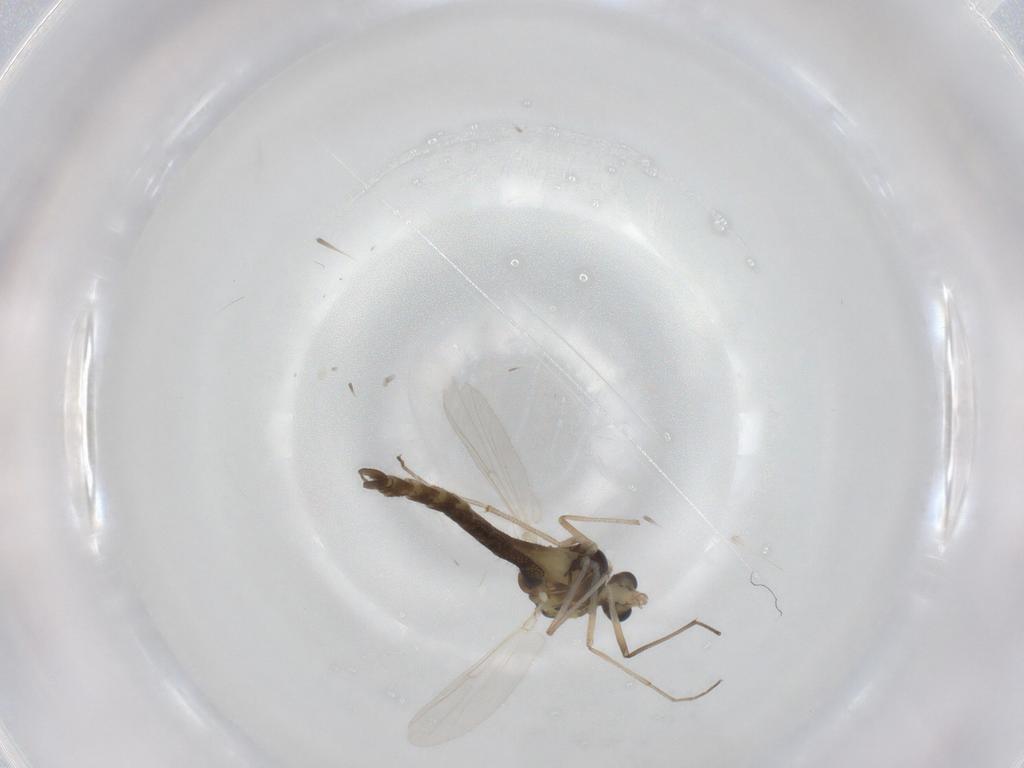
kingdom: Animalia
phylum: Arthropoda
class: Insecta
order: Diptera
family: Chironomidae
